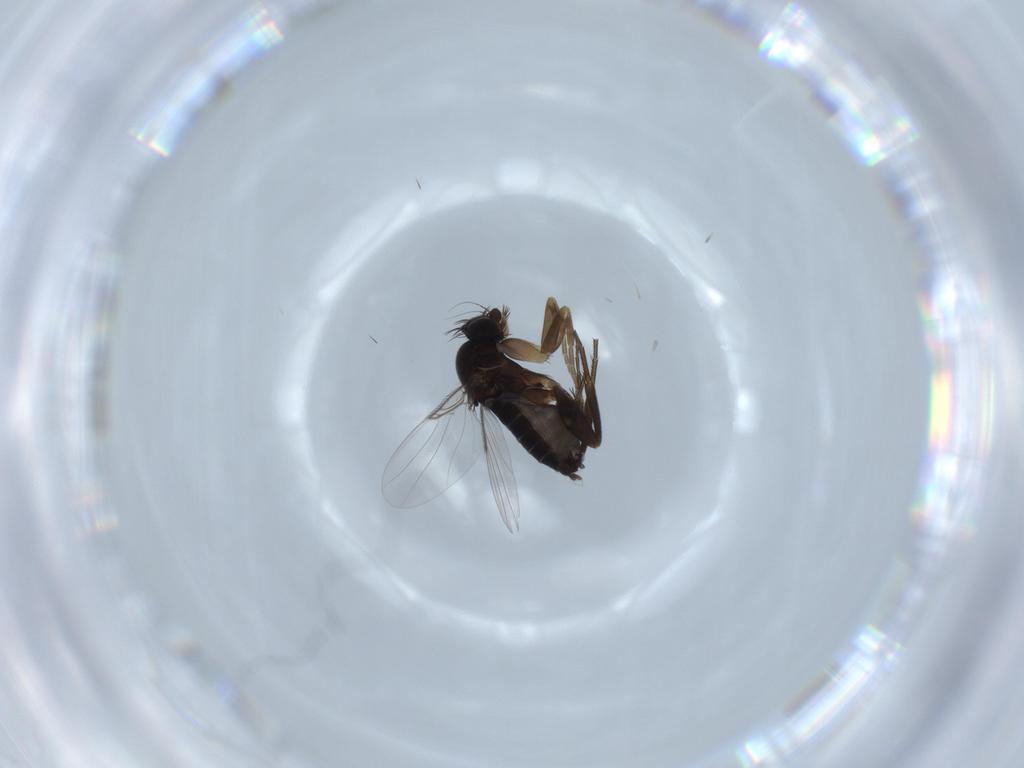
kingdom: Animalia
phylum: Arthropoda
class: Insecta
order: Diptera
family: Phoridae
